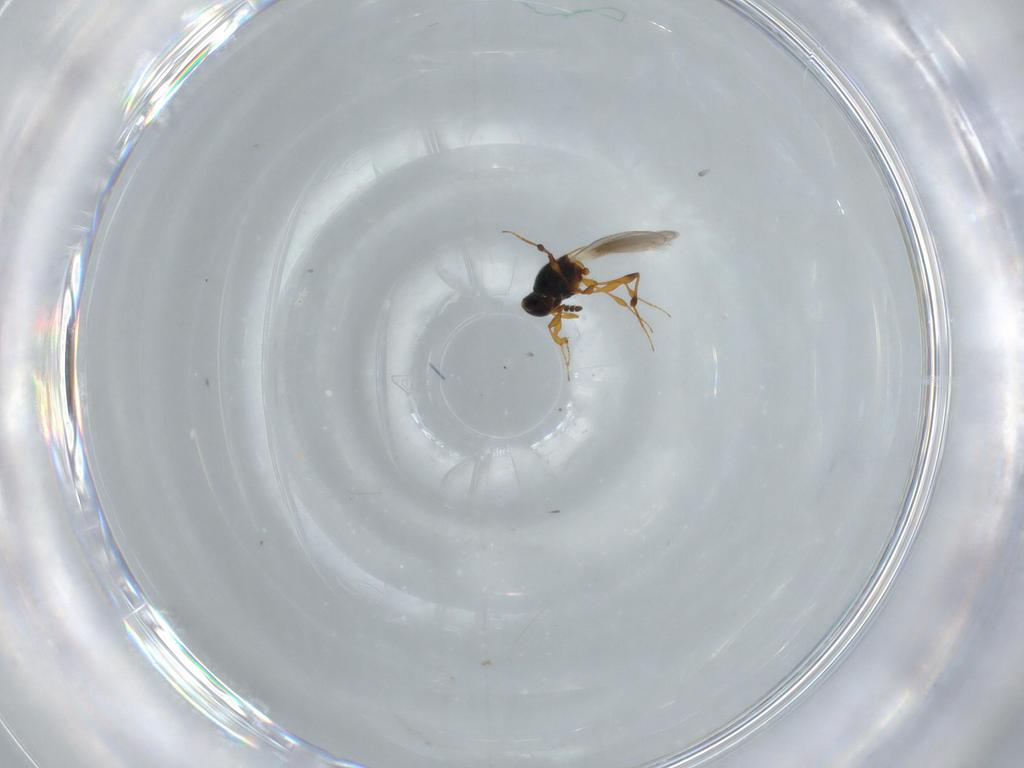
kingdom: Animalia
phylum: Arthropoda
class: Insecta
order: Hymenoptera
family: Platygastridae
